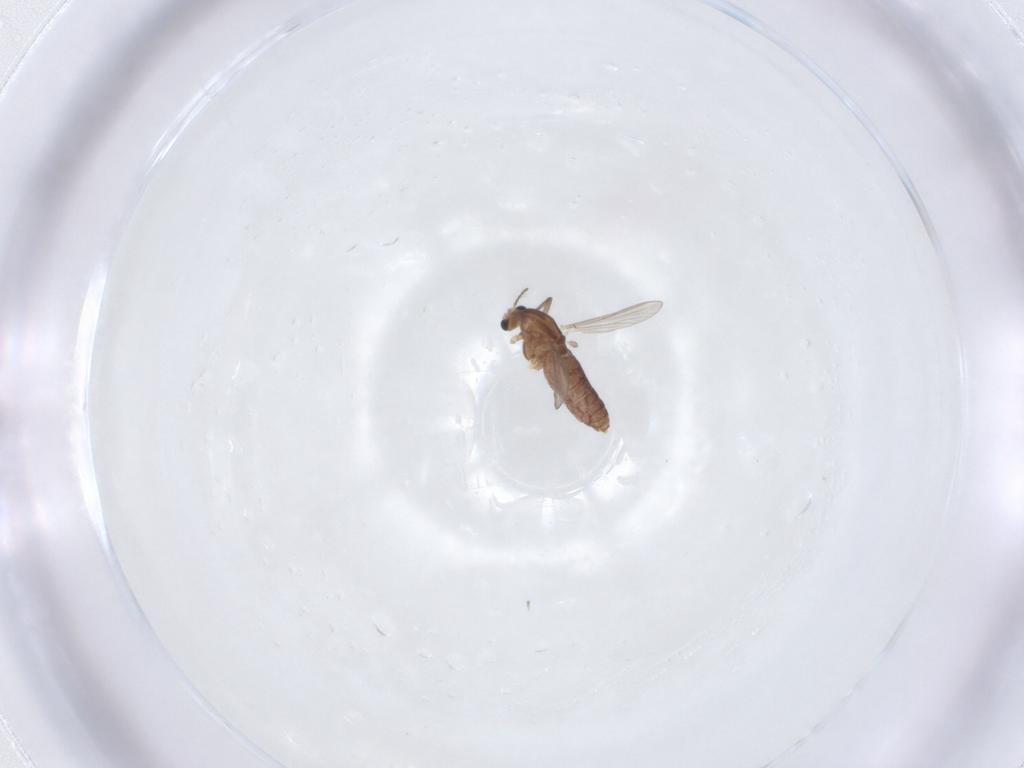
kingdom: Animalia
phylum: Arthropoda
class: Insecta
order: Diptera
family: Chironomidae
